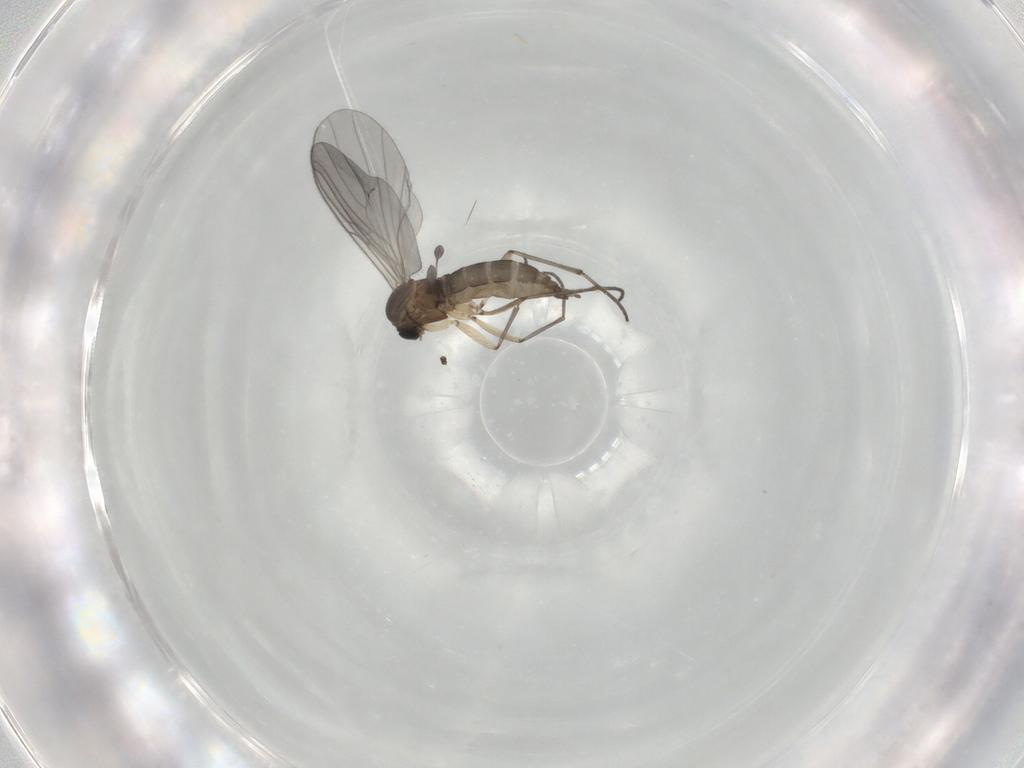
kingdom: Animalia
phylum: Arthropoda
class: Insecta
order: Diptera
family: Sciaridae
